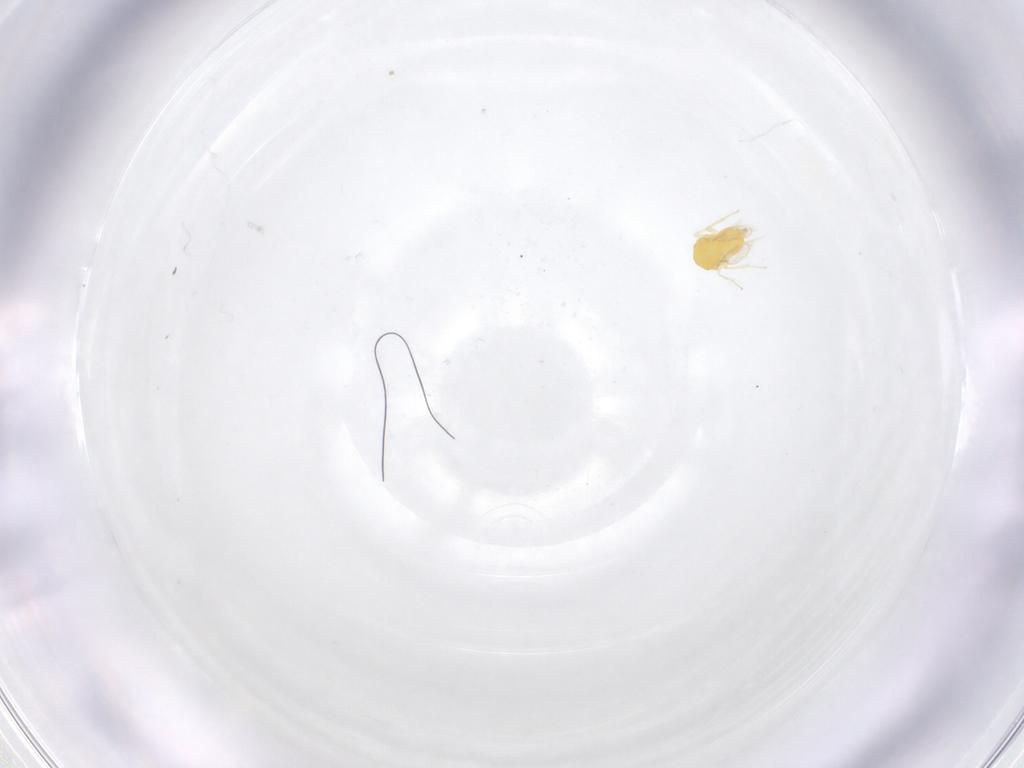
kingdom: Animalia
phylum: Arthropoda
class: Insecta
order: Hymenoptera
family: Aphelinidae
